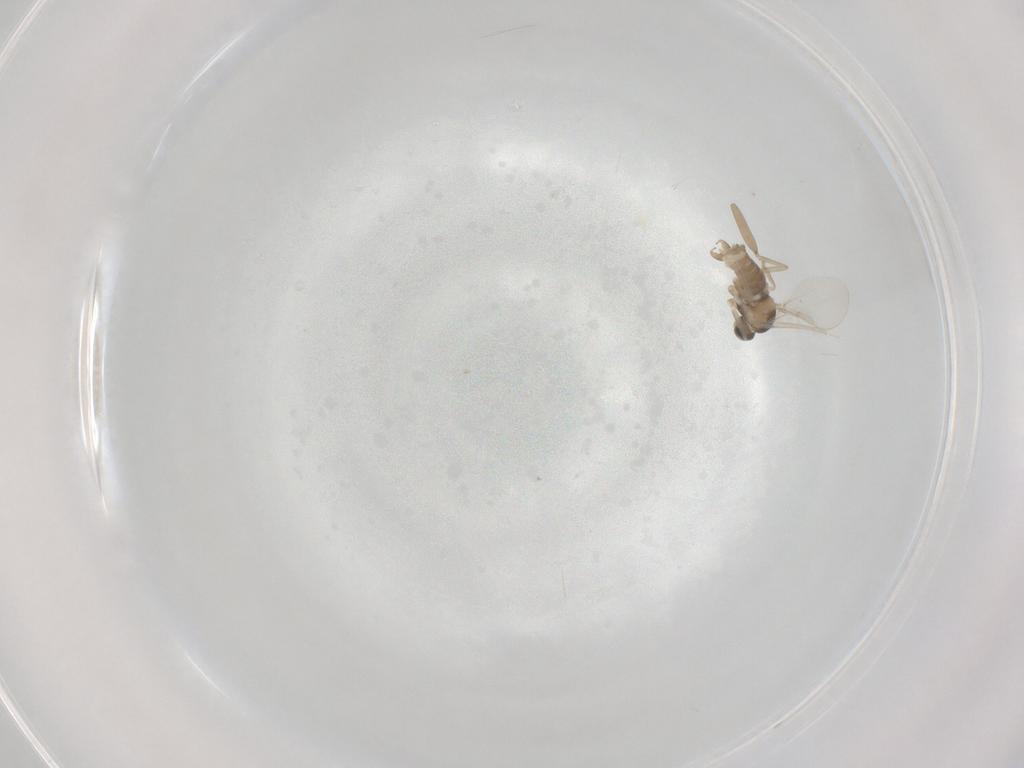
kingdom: Animalia
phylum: Arthropoda
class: Insecta
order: Diptera
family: Cecidomyiidae
